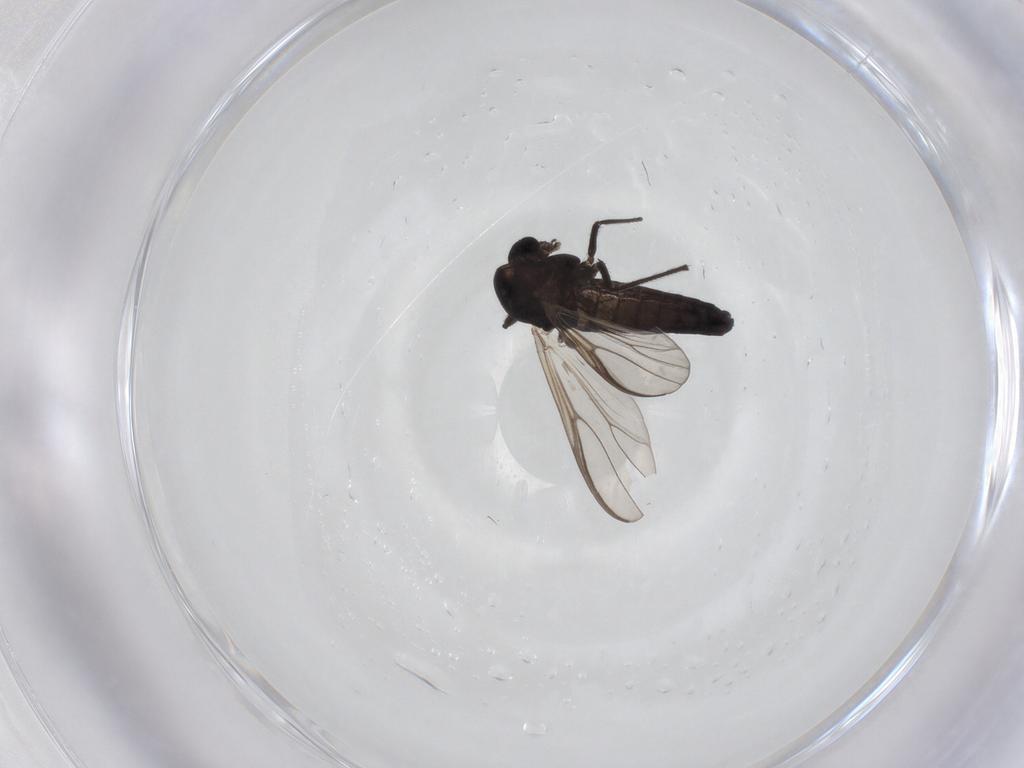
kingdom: Animalia
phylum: Arthropoda
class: Insecta
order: Diptera
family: Chironomidae
